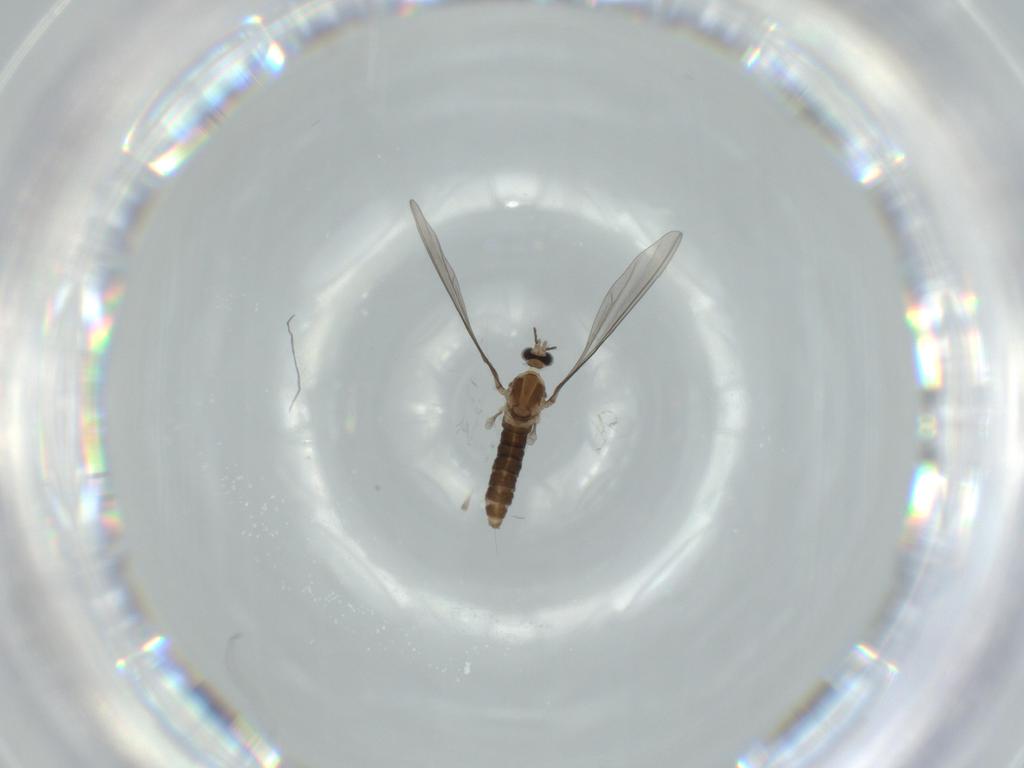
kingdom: Animalia
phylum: Arthropoda
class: Insecta
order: Diptera
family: Cecidomyiidae
